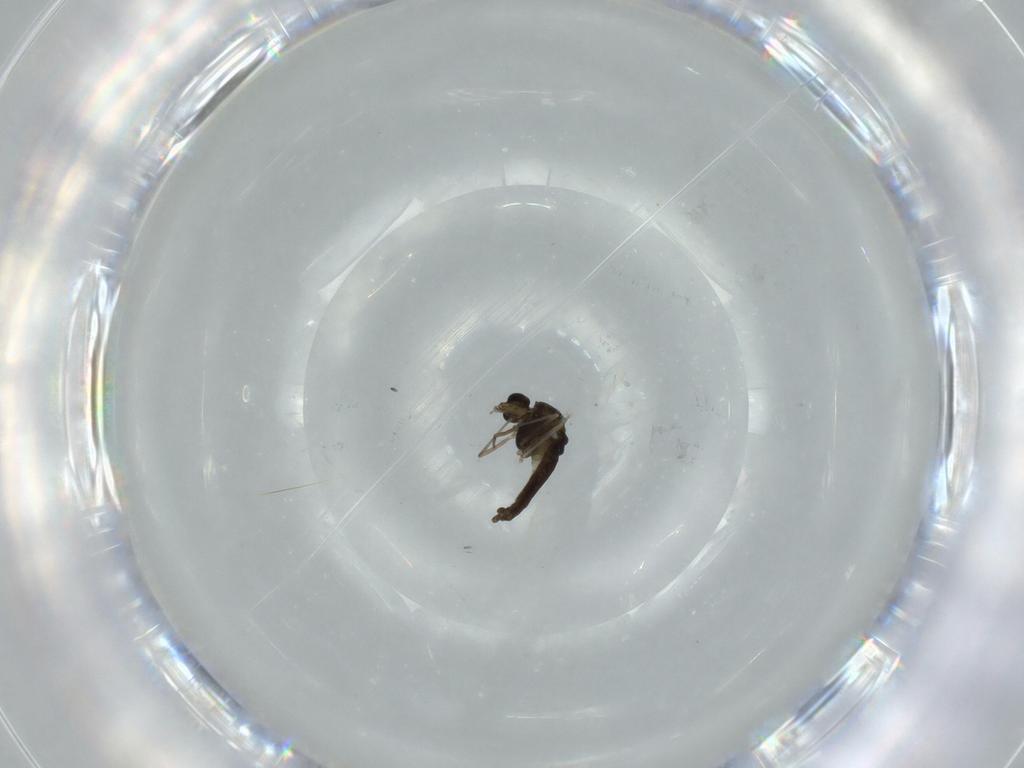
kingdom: Animalia
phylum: Arthropoda
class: Insecta
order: Diptera
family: Chironomidae
